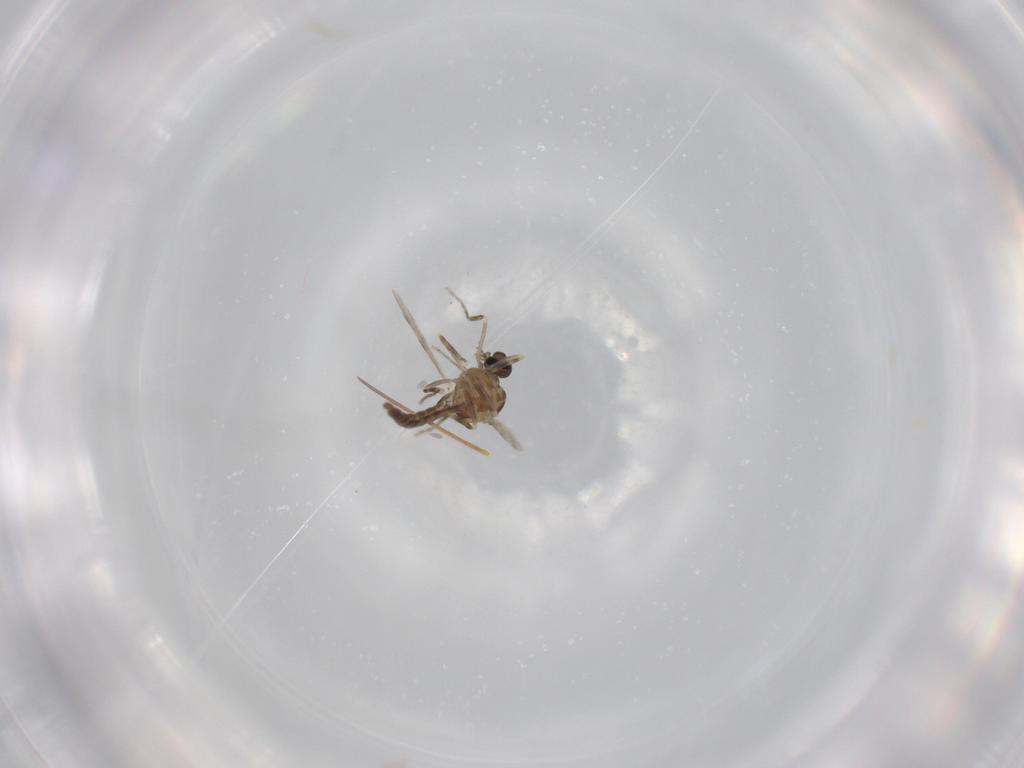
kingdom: Animalia
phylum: Arthropoda
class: Insecta
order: Diptera
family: Ceratopogonidae
